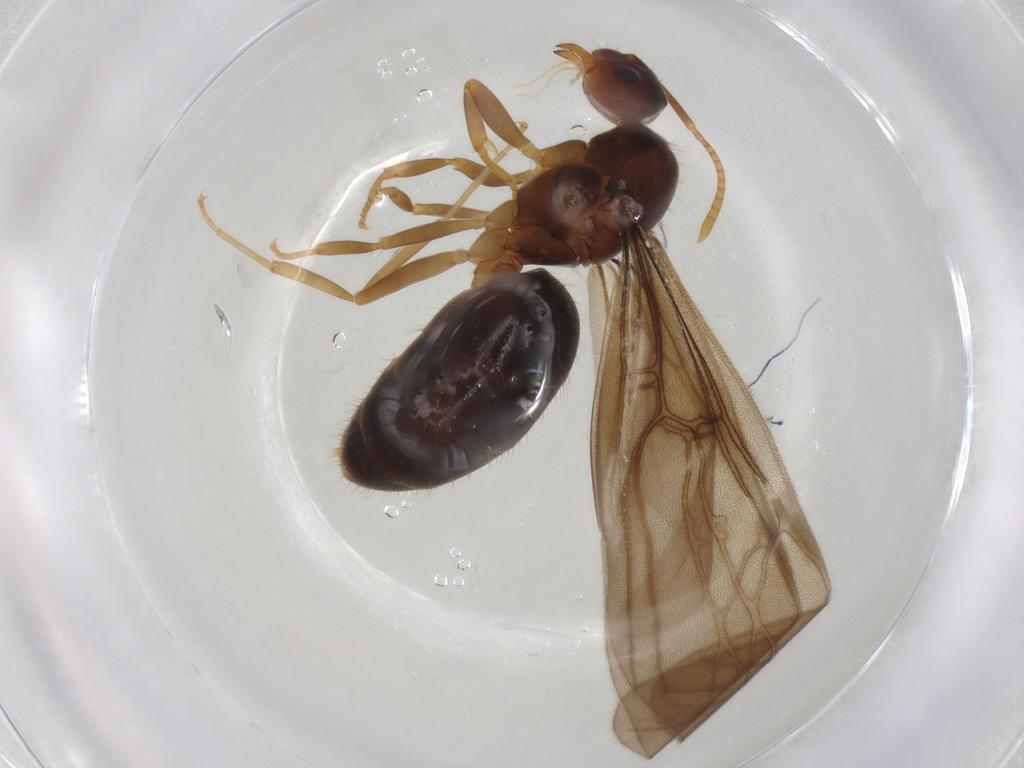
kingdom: Animalia
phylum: Arthropoda
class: Insecta
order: Hymenoptera
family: Formicidae
